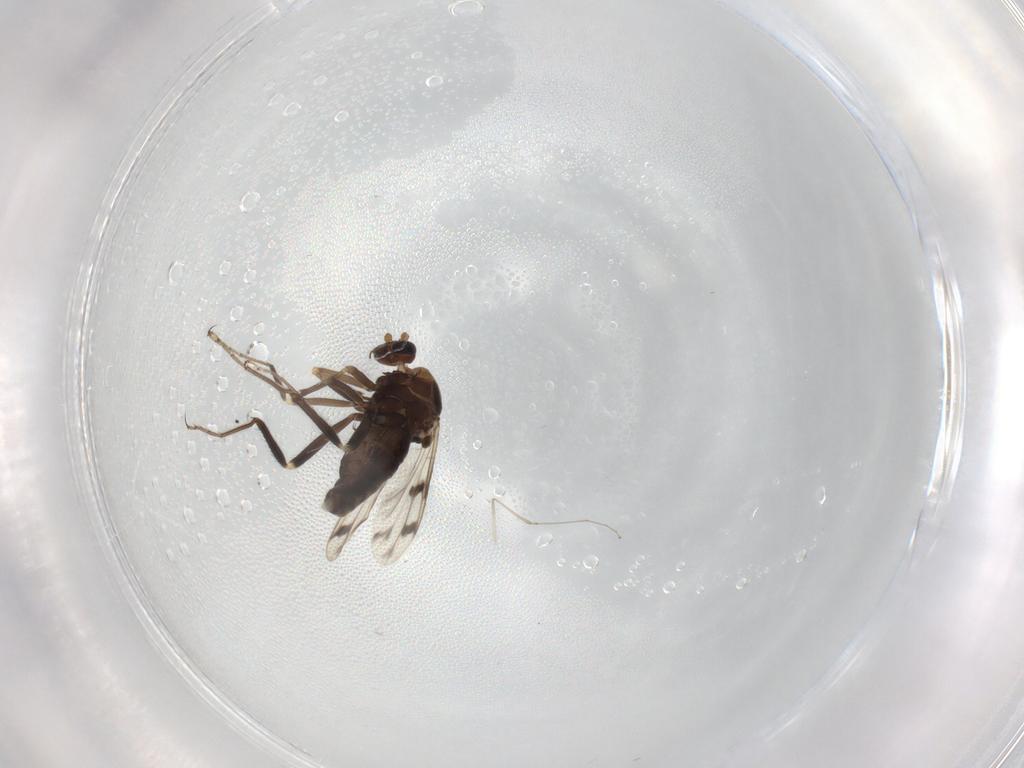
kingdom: Animalia
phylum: Arthropoda
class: Insecta
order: Diptera
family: Ceratopogonidae
